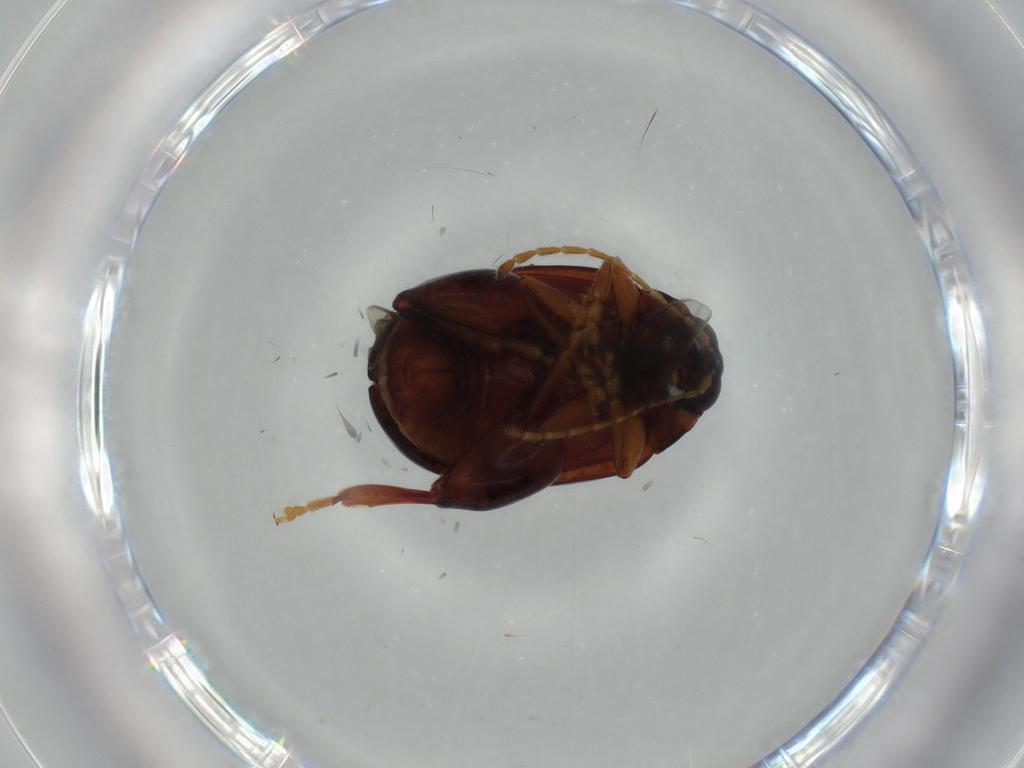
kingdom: Animalia
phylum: Arthropoda
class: Insecta
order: Coleoptera
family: Chrysomelidae
